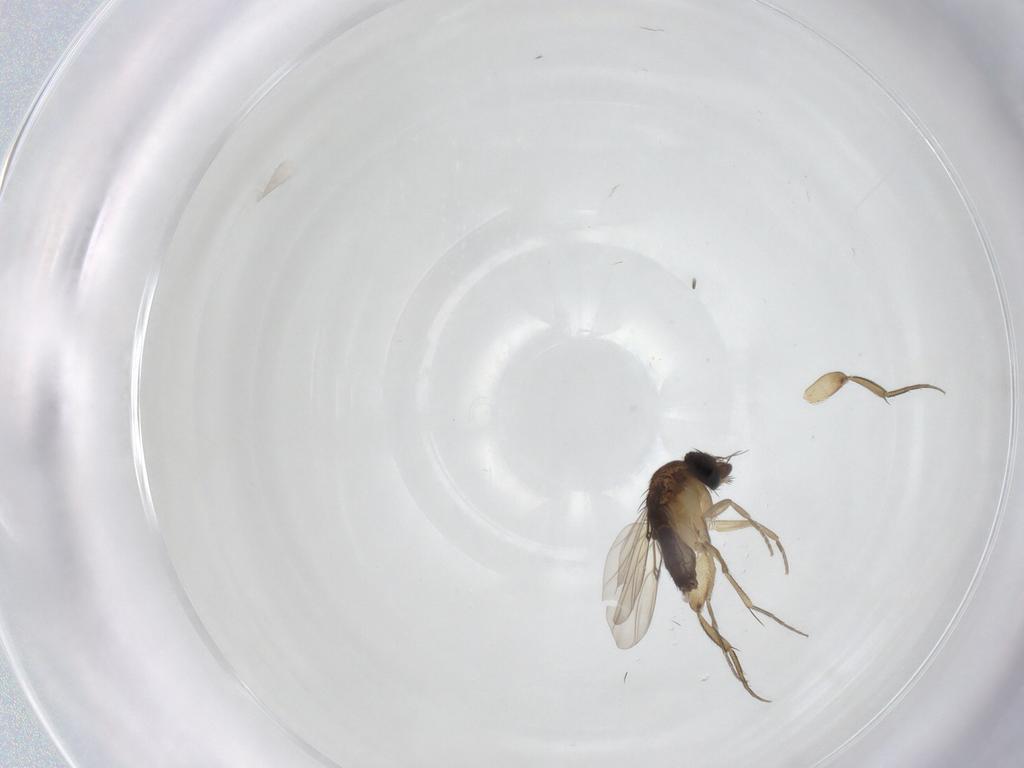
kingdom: Animalia
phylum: Arthropoda
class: Insecta
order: Diptera
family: Phoridae
